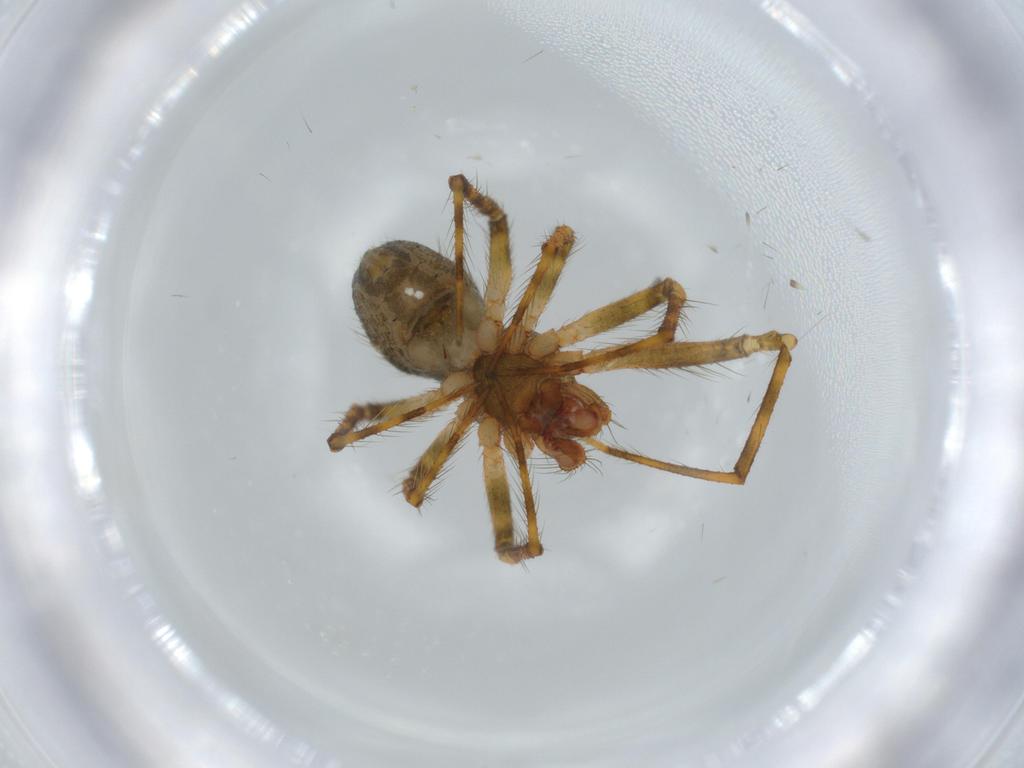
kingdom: Animalia
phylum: Arthropoda
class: Arachnida
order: Araneae
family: Theridiidae
